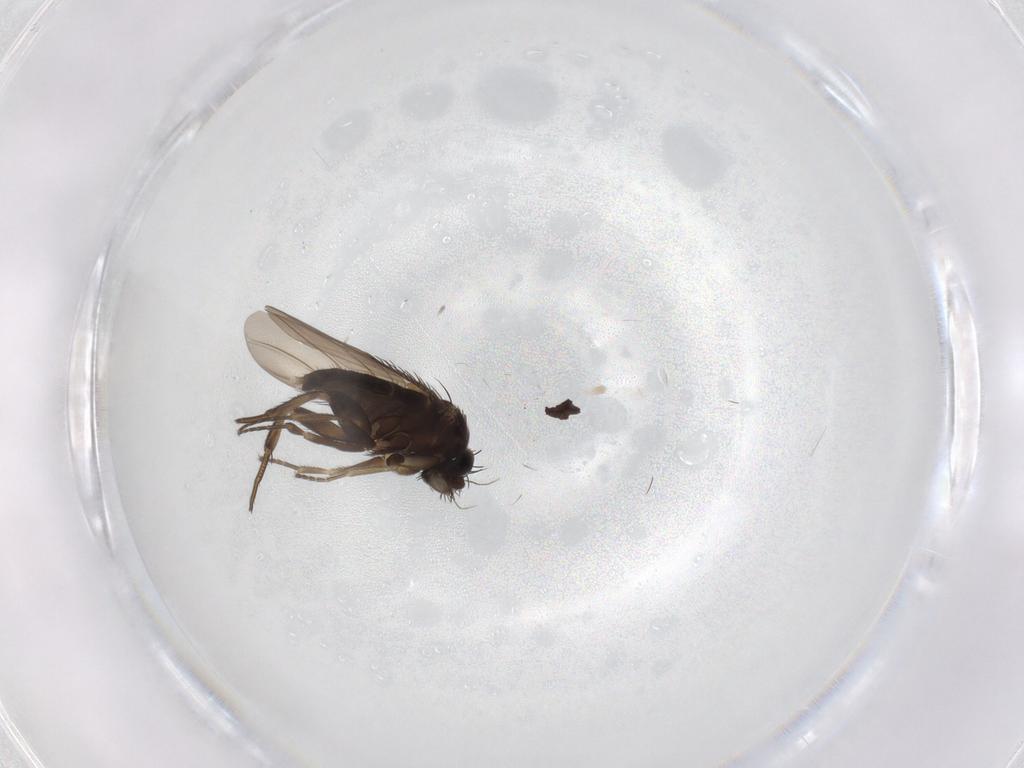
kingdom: Animalia
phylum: Arthropoda
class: Insecta
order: Diptera
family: Phoridae
